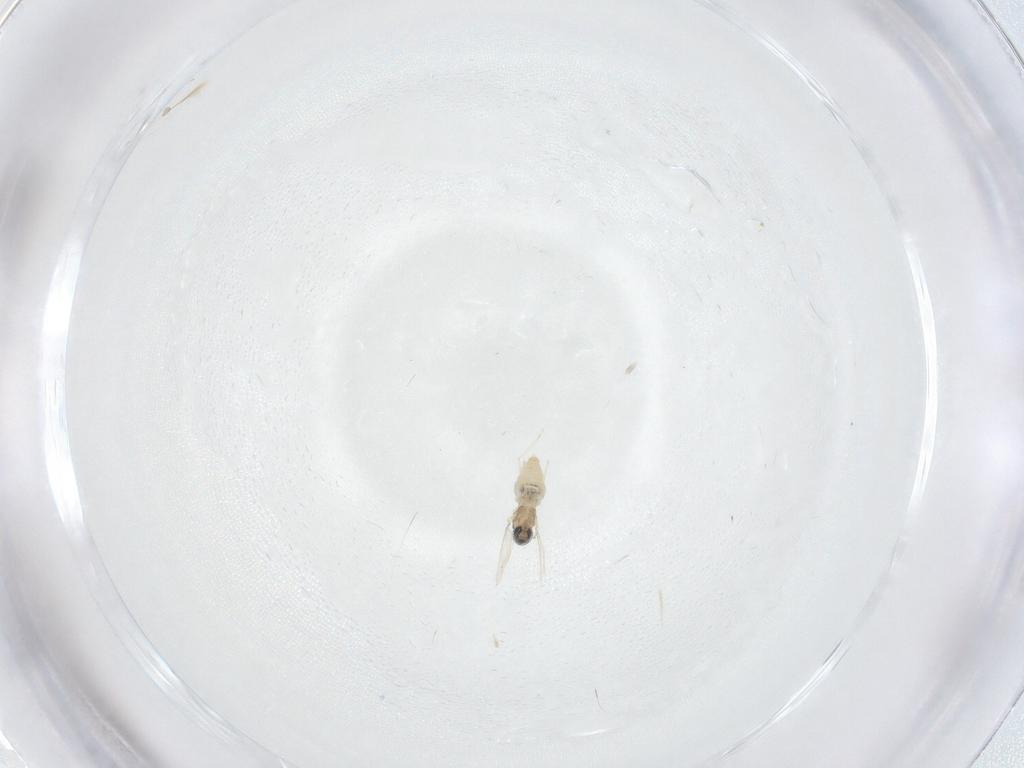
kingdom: Animalia
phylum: Arthropoda
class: Insecta
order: Diptera
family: Cecidomyiidae
